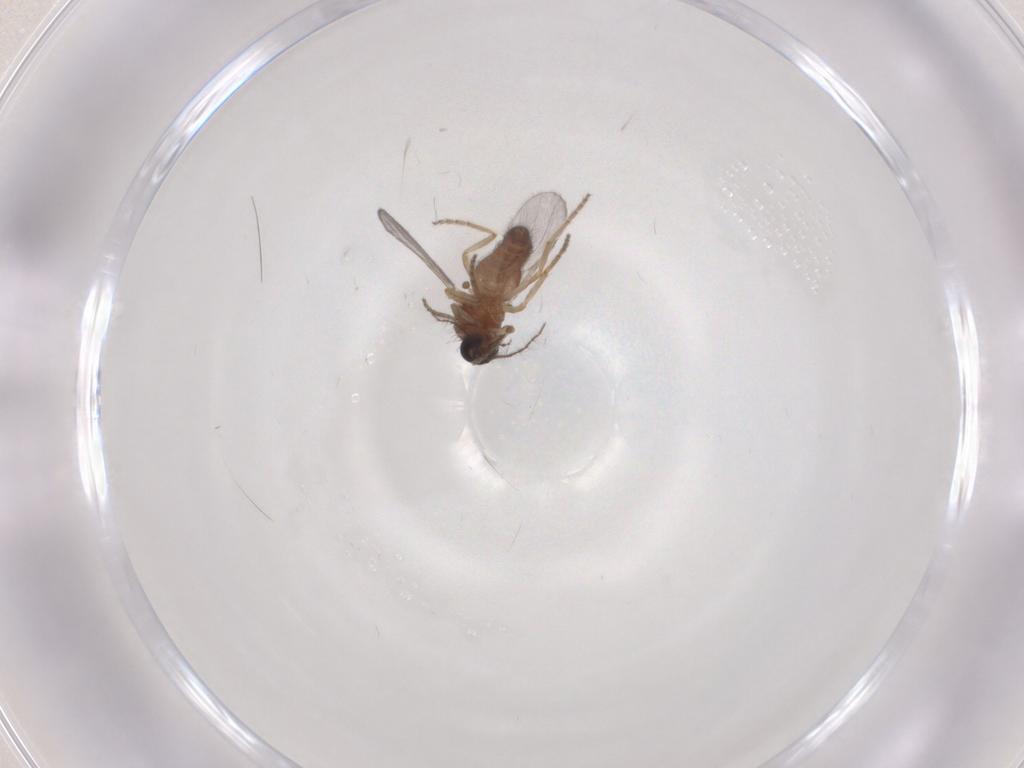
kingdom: Animalia
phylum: Arthropoda
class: Insecta
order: Diptera
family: Ceratopogonidae
